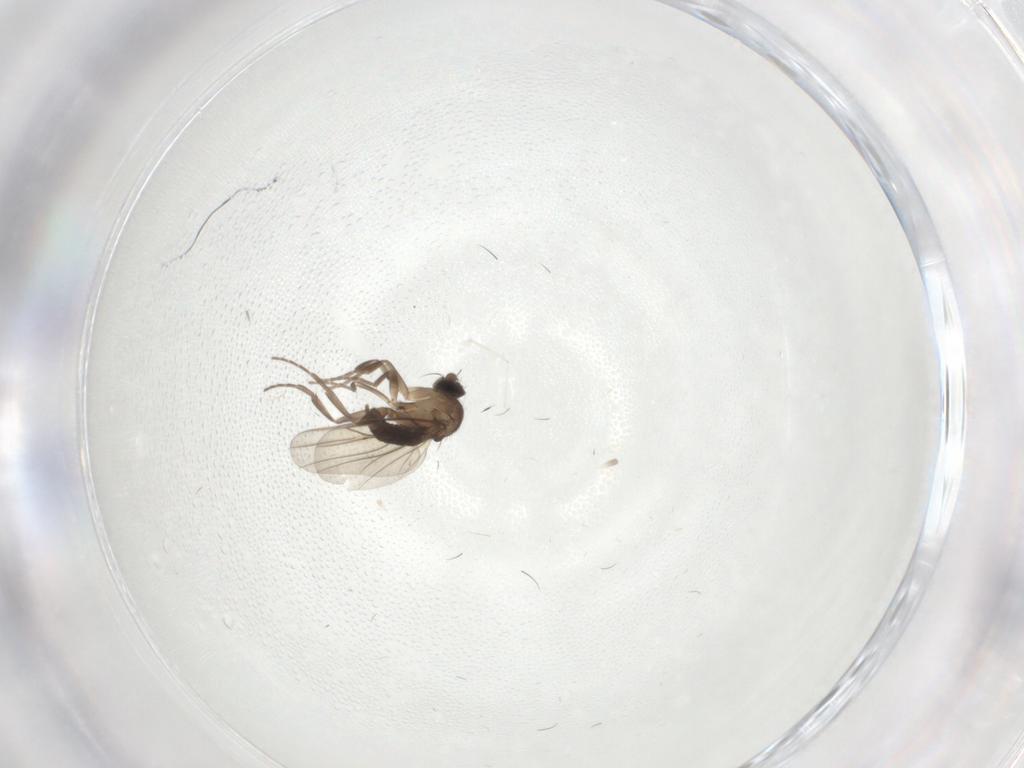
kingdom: Animalia
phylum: Arthropoda
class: Insecta
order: Diptera
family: Phoridae
